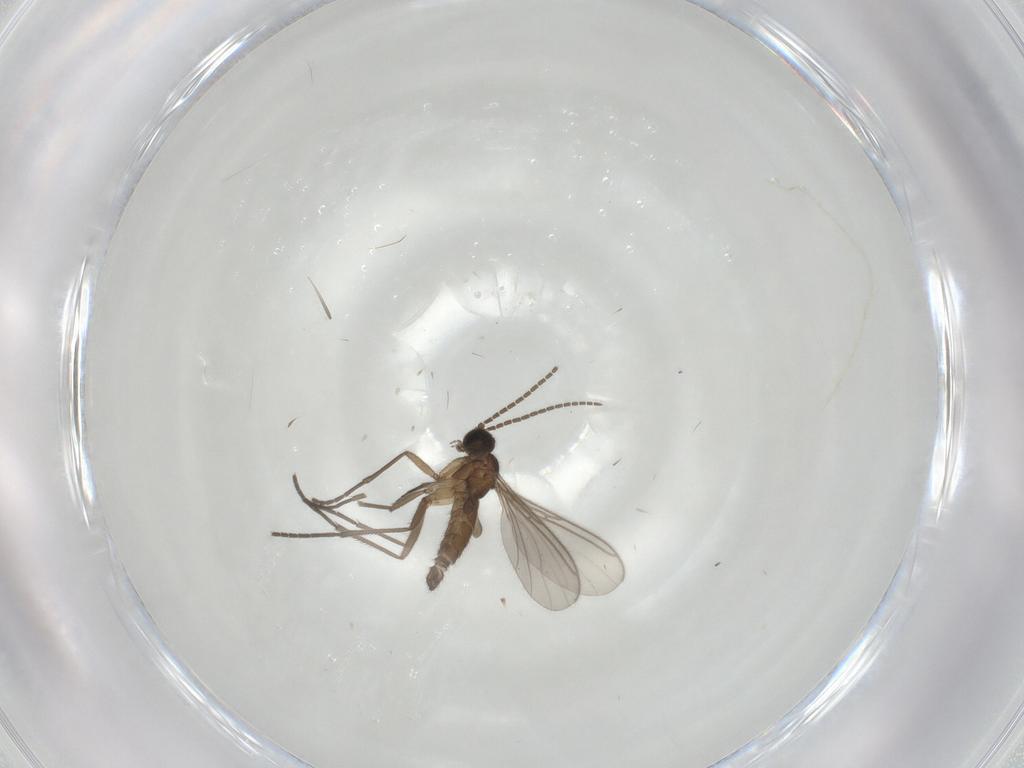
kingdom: Animalia
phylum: Arthropoda
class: Insecta
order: Diptera
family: Sciaridae
